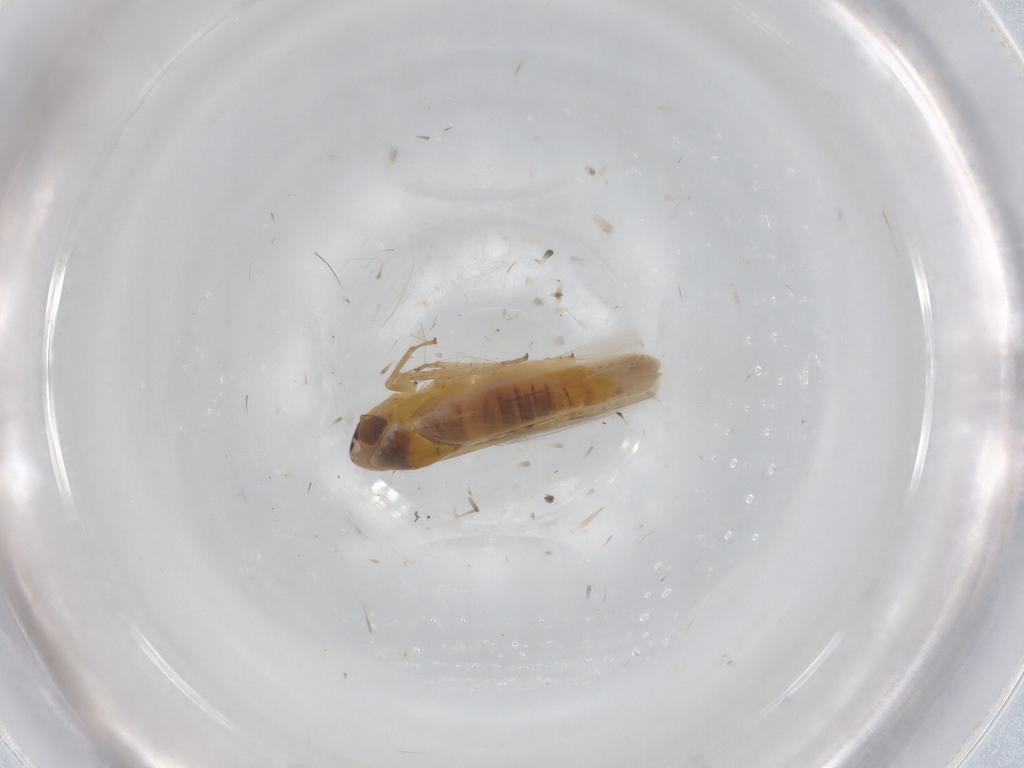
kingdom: Animalia
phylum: Arthropoda
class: Insecta
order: Hemiptera
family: Cicadellidae
